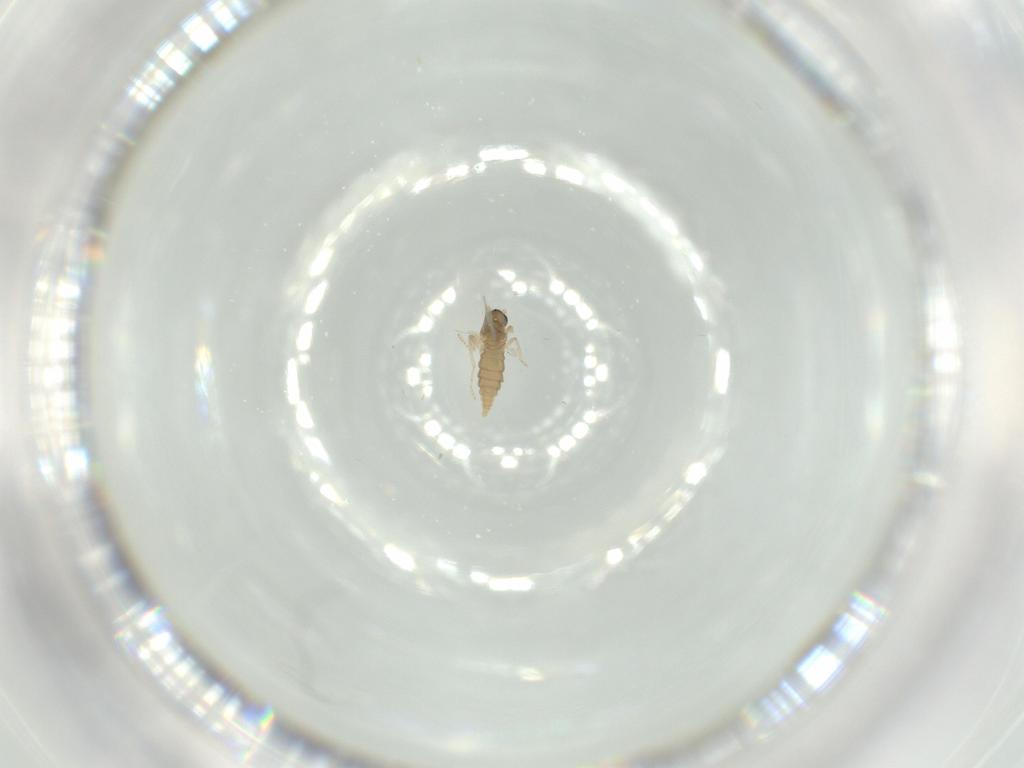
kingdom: Animalia
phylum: Arthropoda
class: Insecta
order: Diptera
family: Cecidomyiidae
